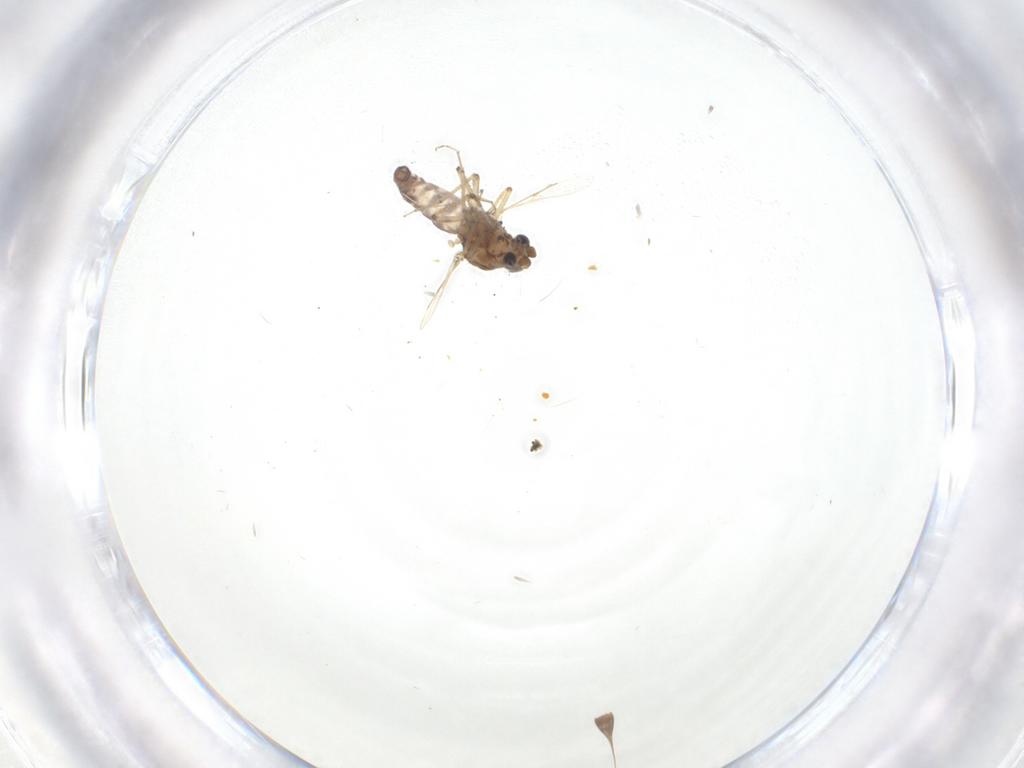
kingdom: Animalia
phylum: Arthropoda
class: Insecta
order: Diptera
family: Ceratopogonidae
